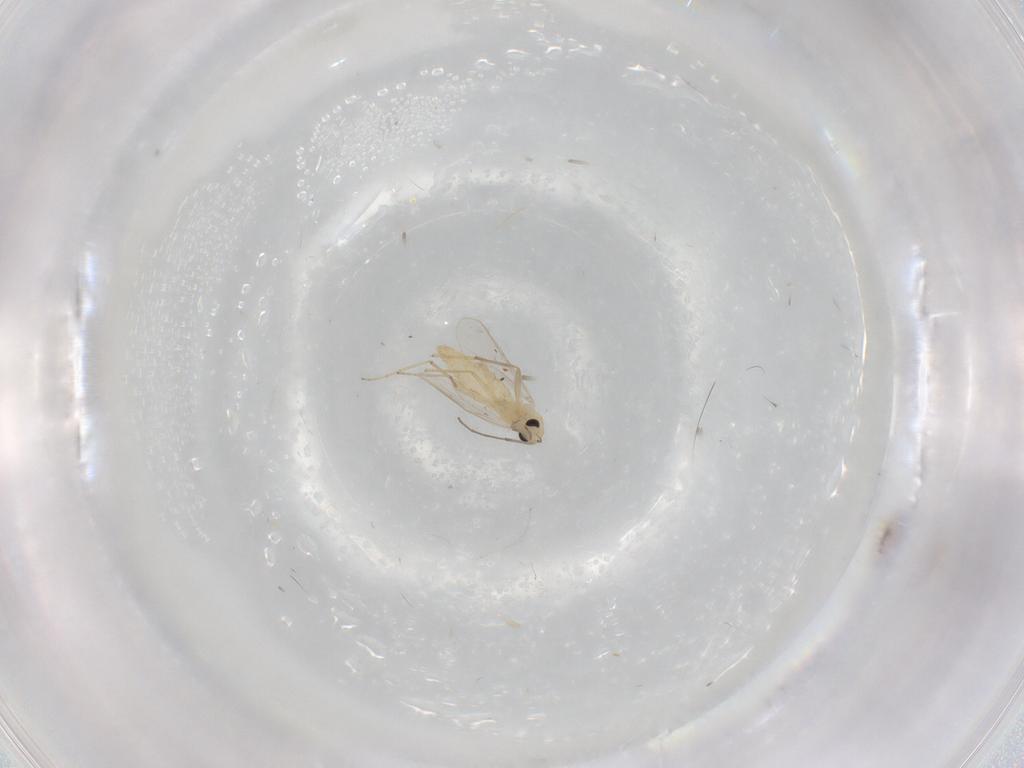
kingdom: Animalia
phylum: Arthropoda
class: Insecta
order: Diptera
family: Chironomidae
